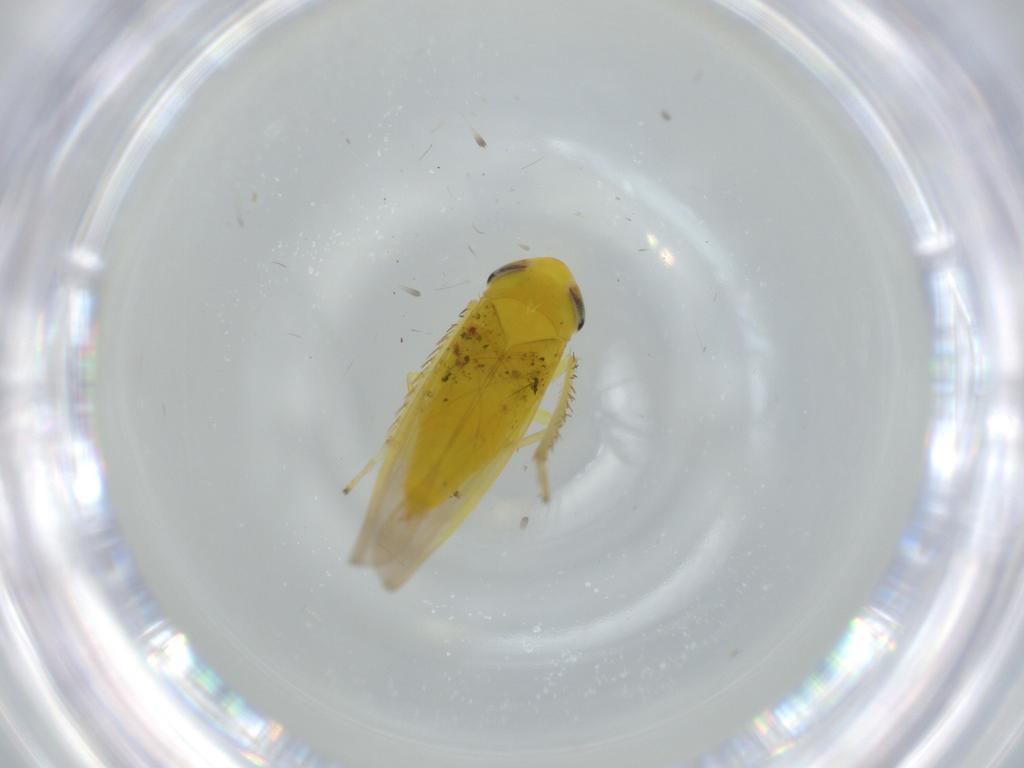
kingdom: Animalia
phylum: Arthropoda
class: Insecta
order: Hemiptera
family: Cicadellidae
